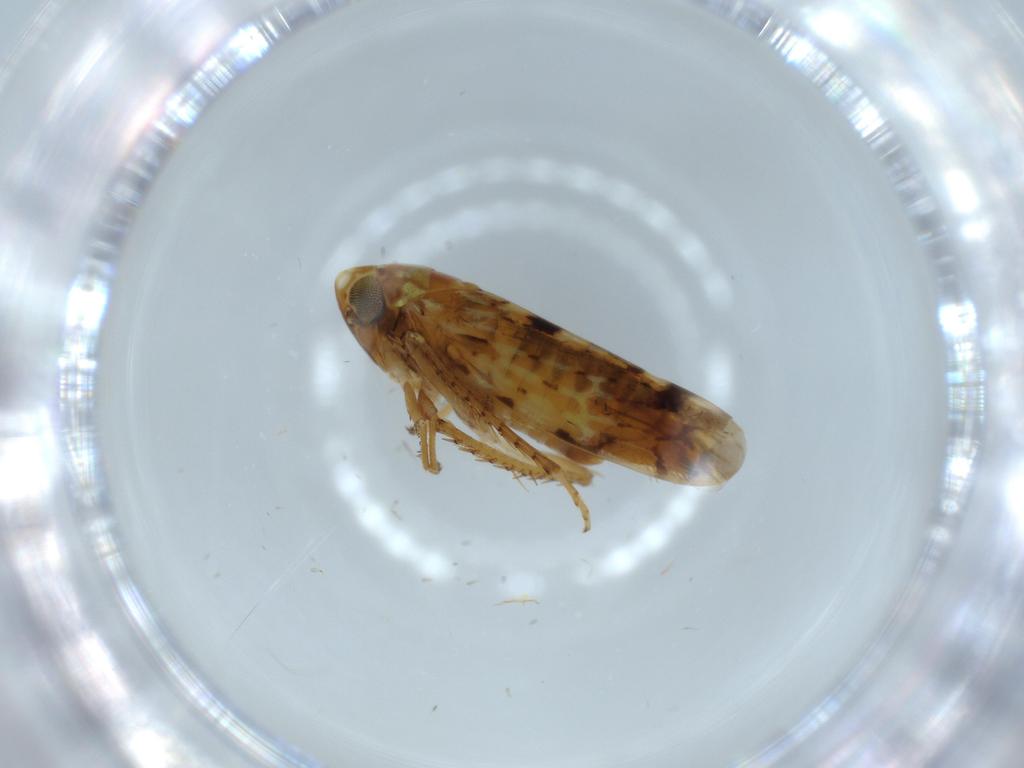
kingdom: Animalia
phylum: Arthropoda
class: Insecta
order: Hemiptera
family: Cicadellidae
